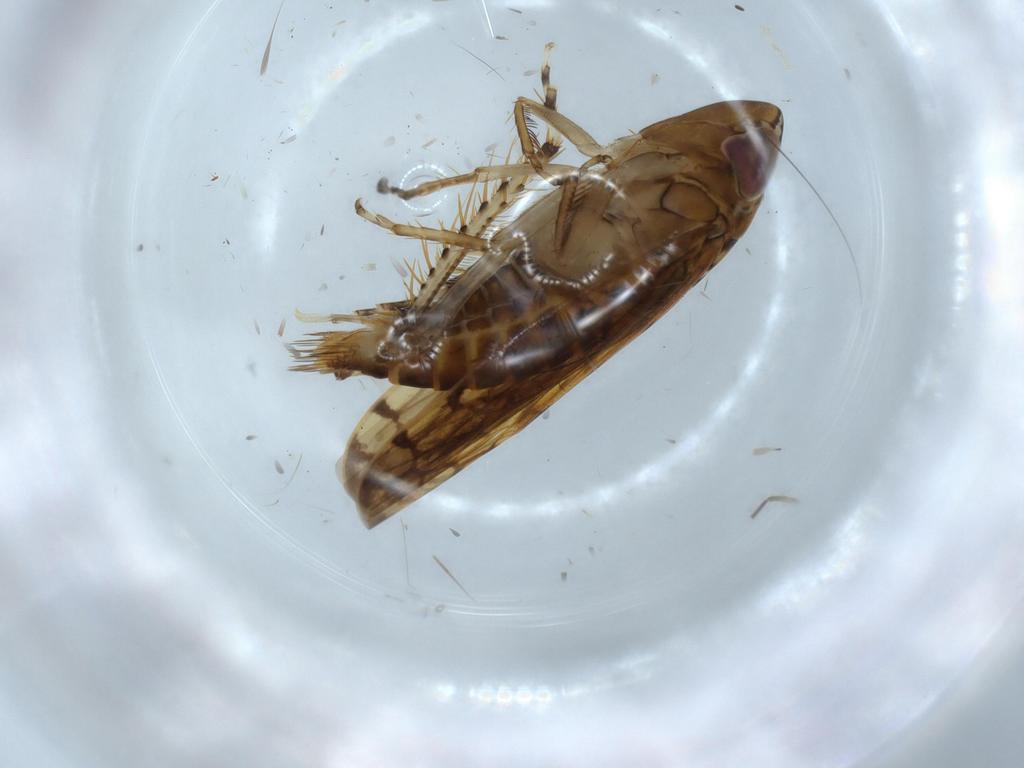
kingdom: Animalia
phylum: Arthropoda
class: Insecta
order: Hemiptera
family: Cicadellidae
